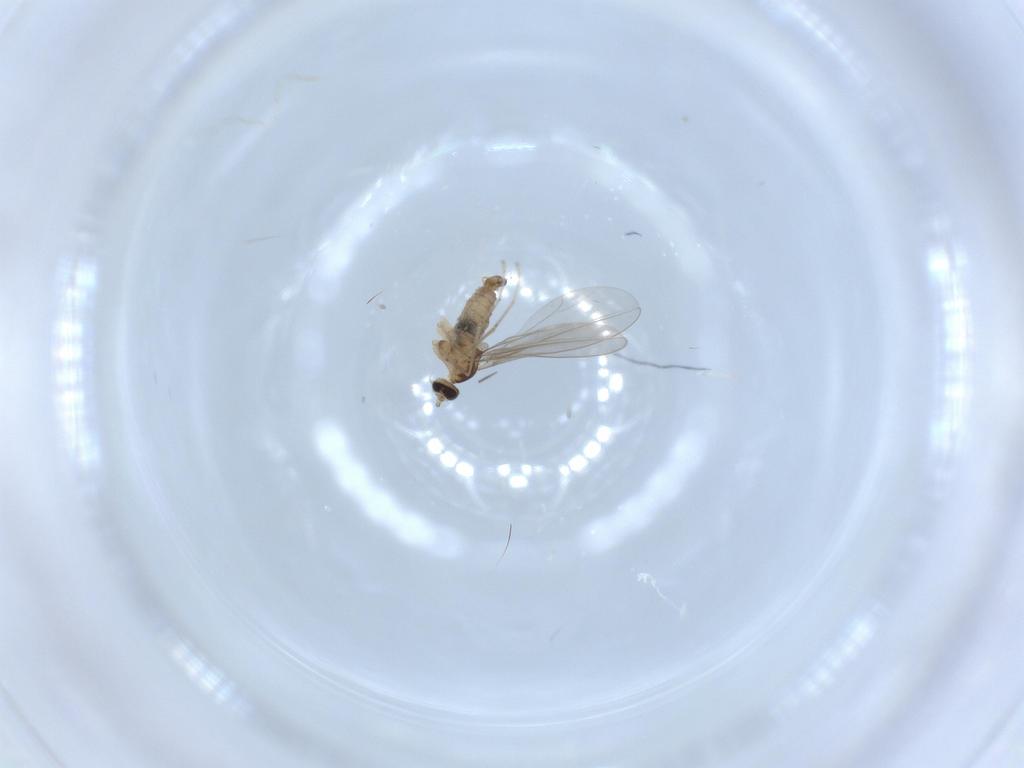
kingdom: Animalia
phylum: Arthropoda
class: Insecta
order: Diptera
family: Cecidomyiidae
